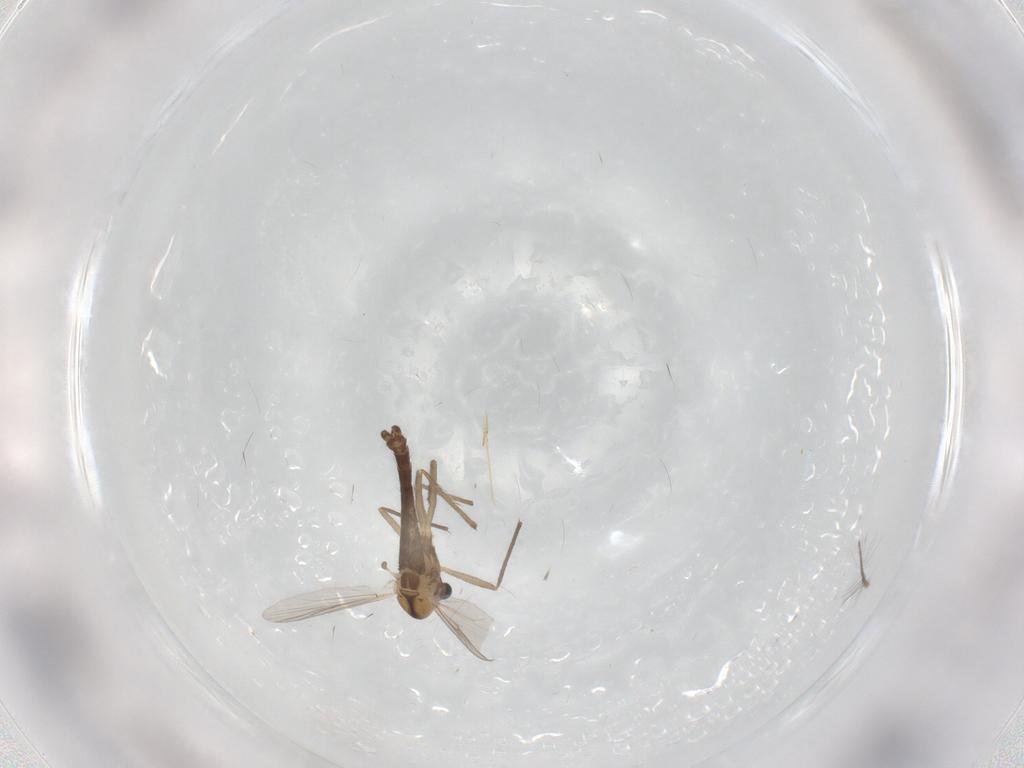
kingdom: Animalia
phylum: Arthropoda
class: Insecta
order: Diptera
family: Chironomidae
